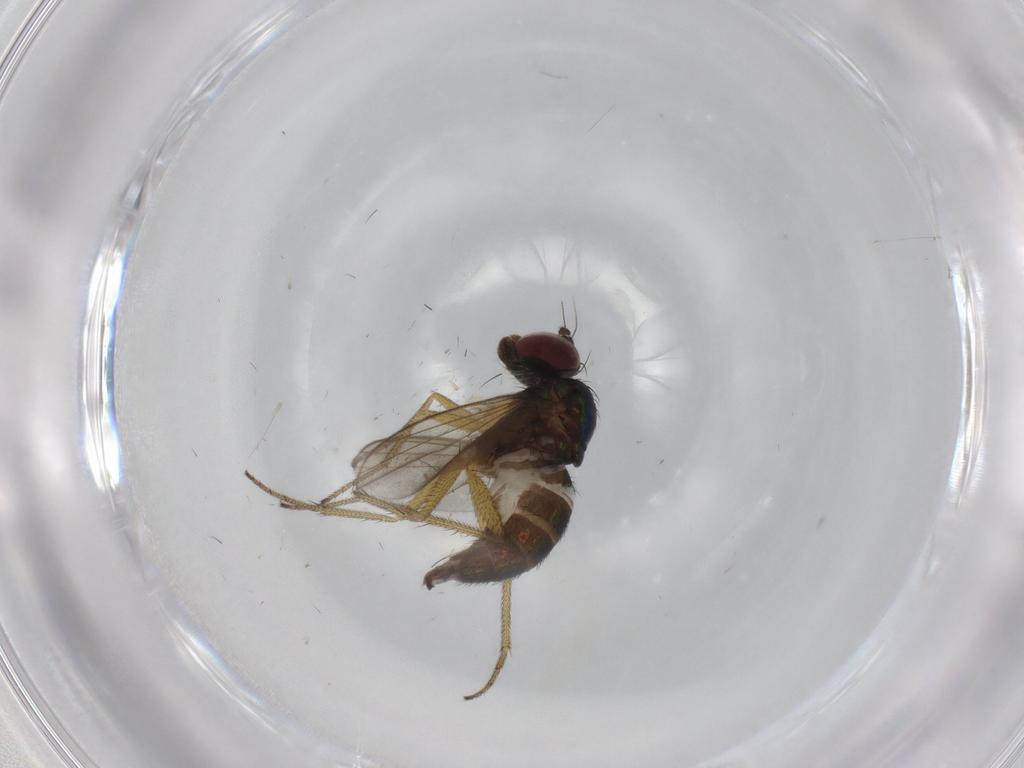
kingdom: Animalia
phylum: Arthropoda
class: Insecta
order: Diptera
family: Dolichopodidae
